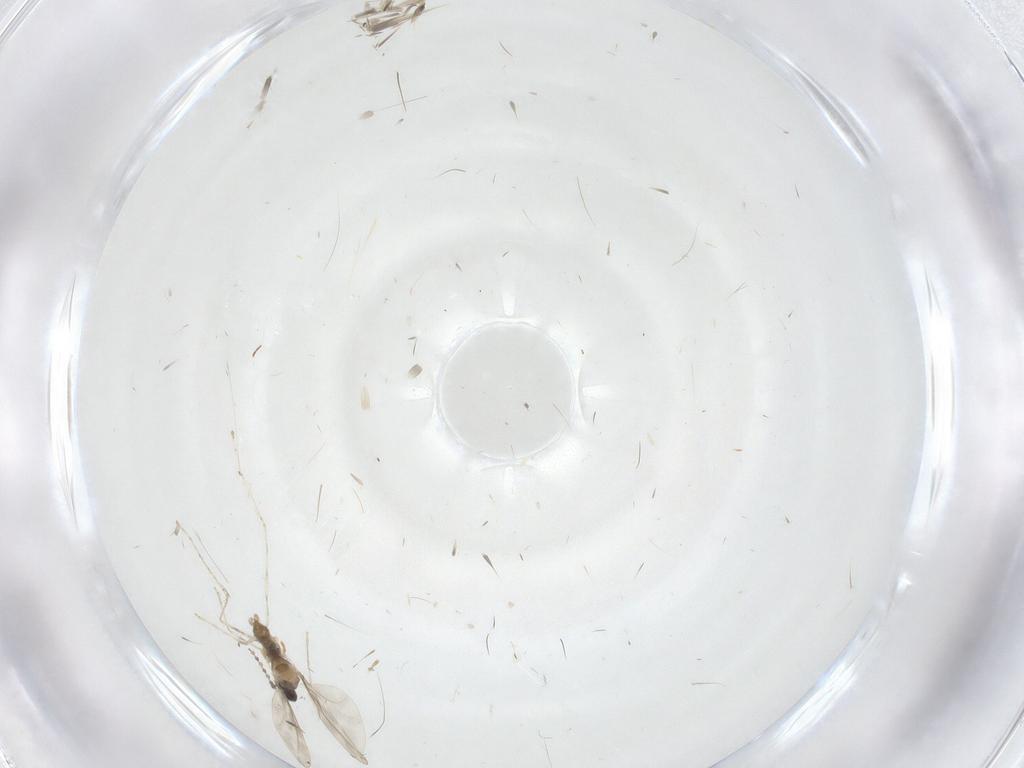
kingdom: Animalia
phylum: Arthropoda
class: Insecta
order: Diptera
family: Cecidomyiidae
